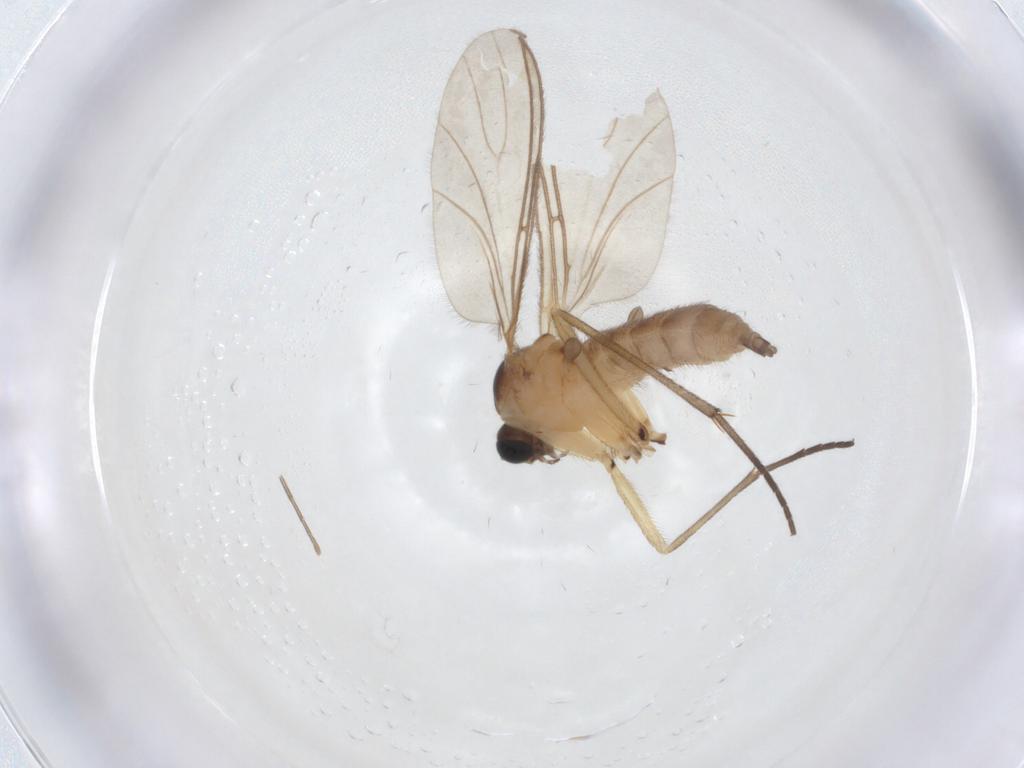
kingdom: Animalia
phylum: Arthropoda
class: Insecta
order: Diptera
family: Sciaridae
